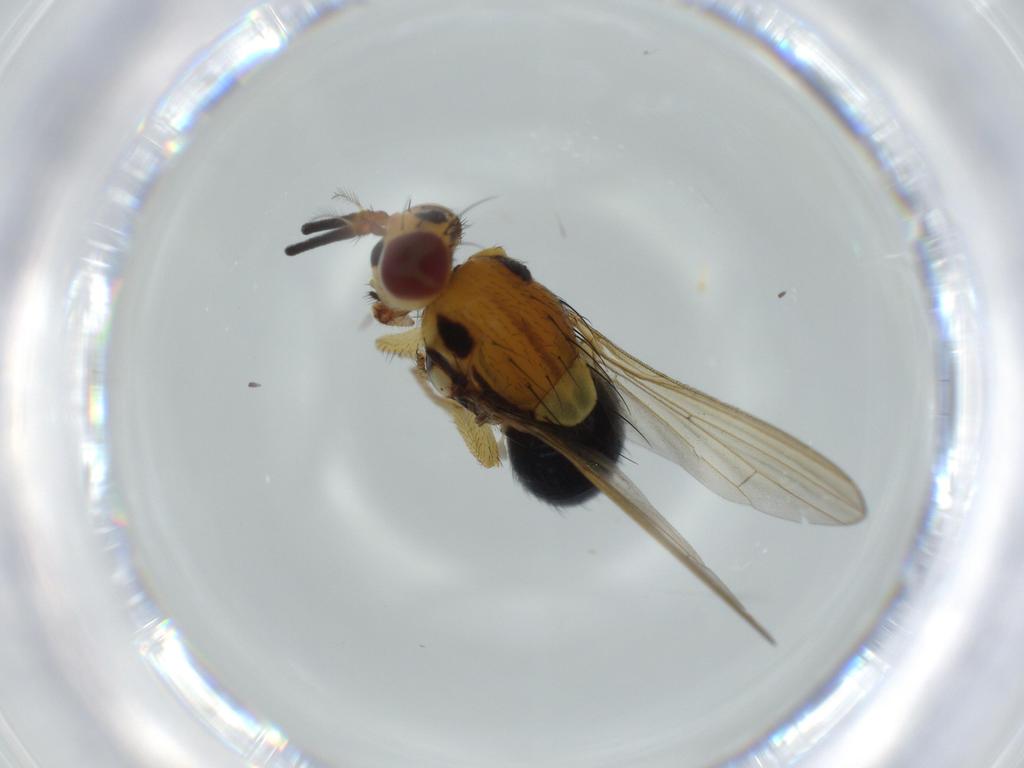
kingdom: Animalia
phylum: Arthropoda
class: Insecta
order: Diptera
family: Lauxaniidae
